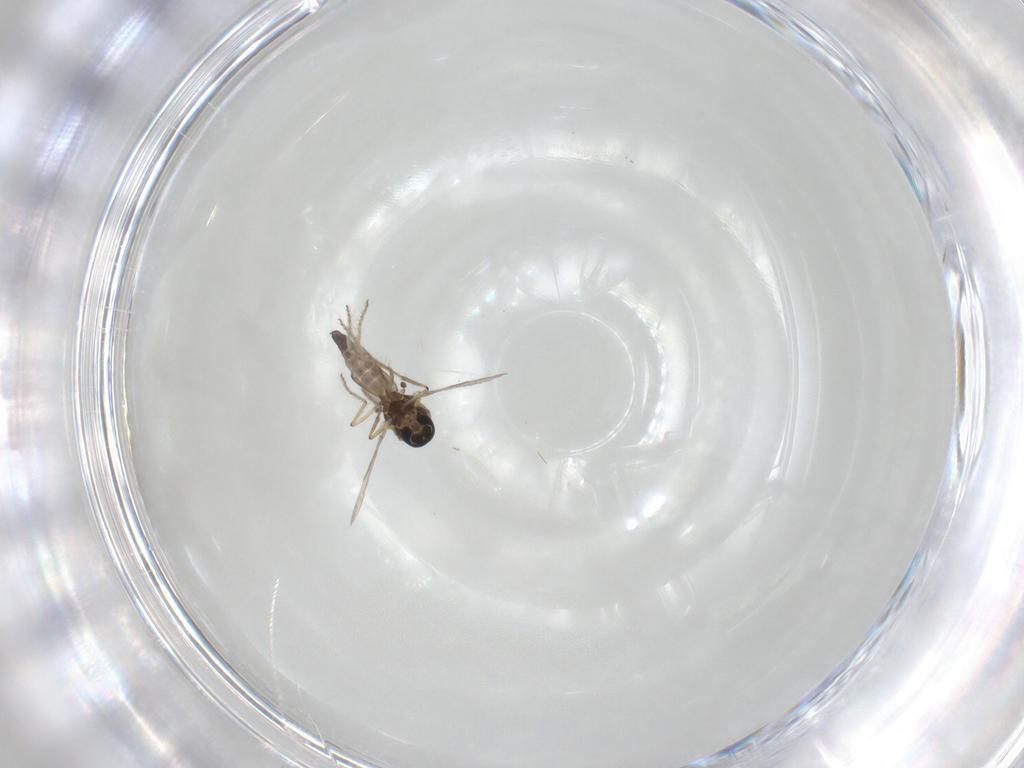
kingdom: Animalia
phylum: Arthropoda
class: Insecta
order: Diptera
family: Ceratopogonidae
